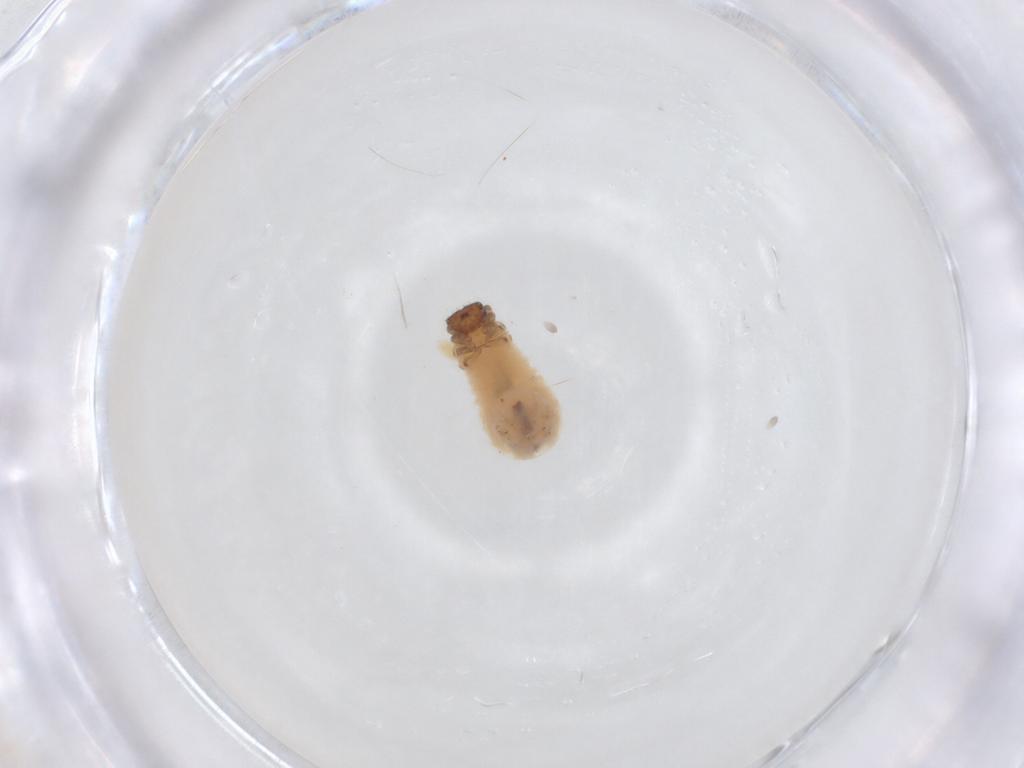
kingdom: Animalia
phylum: Arthropoda
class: Insecta
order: Coleoptera
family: Chrysomelidae
